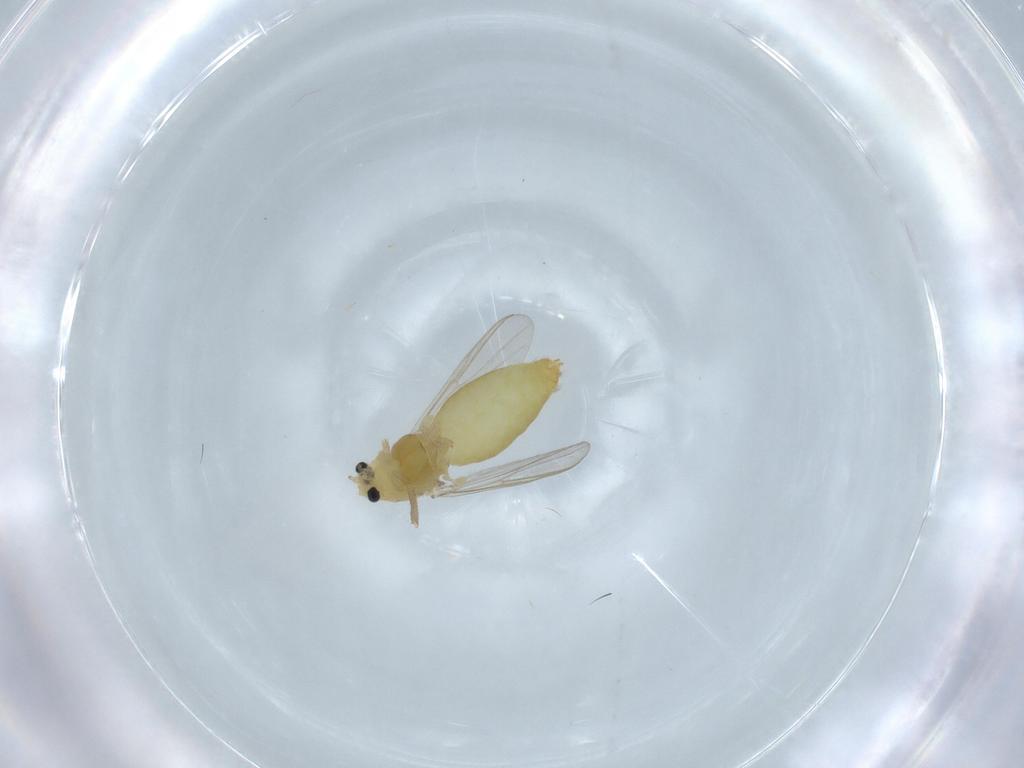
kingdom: Animalia
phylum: Arthropoda
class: Insecta
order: Diptera
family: Chironomidae
